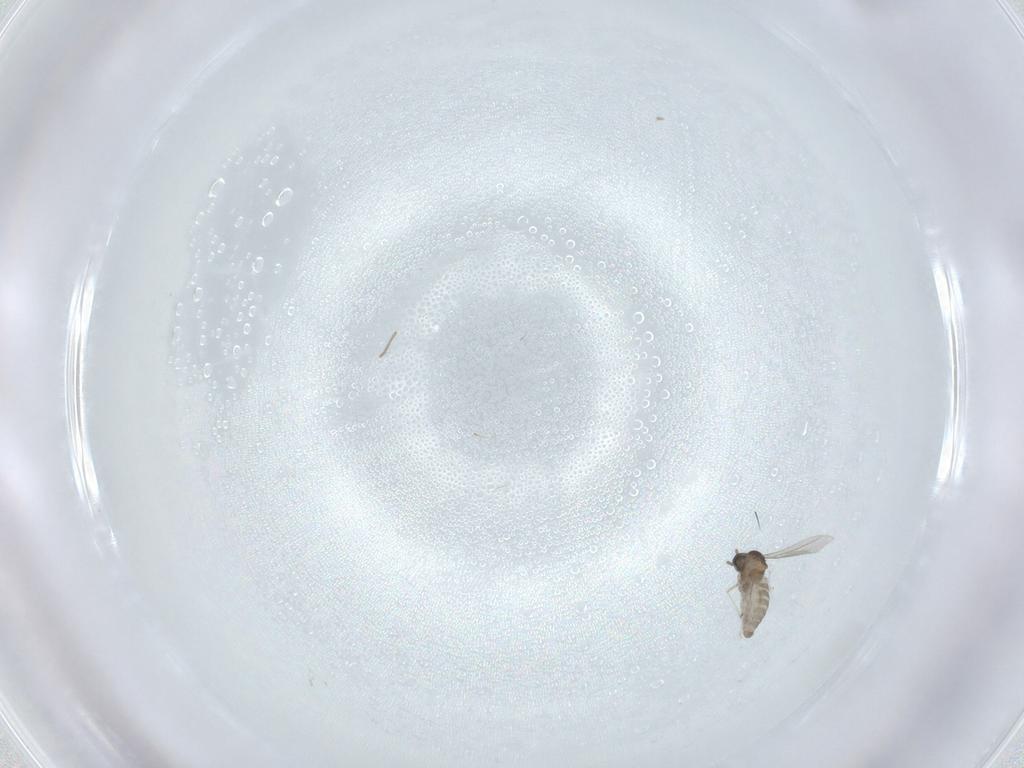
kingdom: Animalia
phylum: Arthropoda
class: Insecta
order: Diptera
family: Cecidomyiidae
